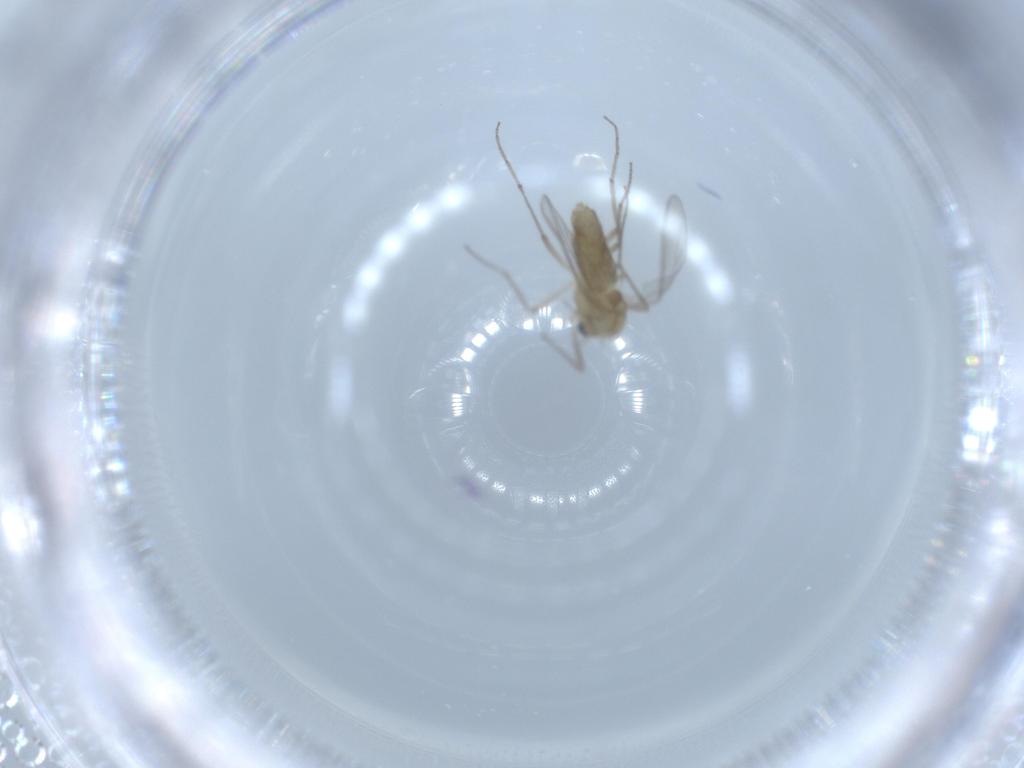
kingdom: Animalia
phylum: Arthropoda
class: Insecta
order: Diptera
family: Chironomidae
